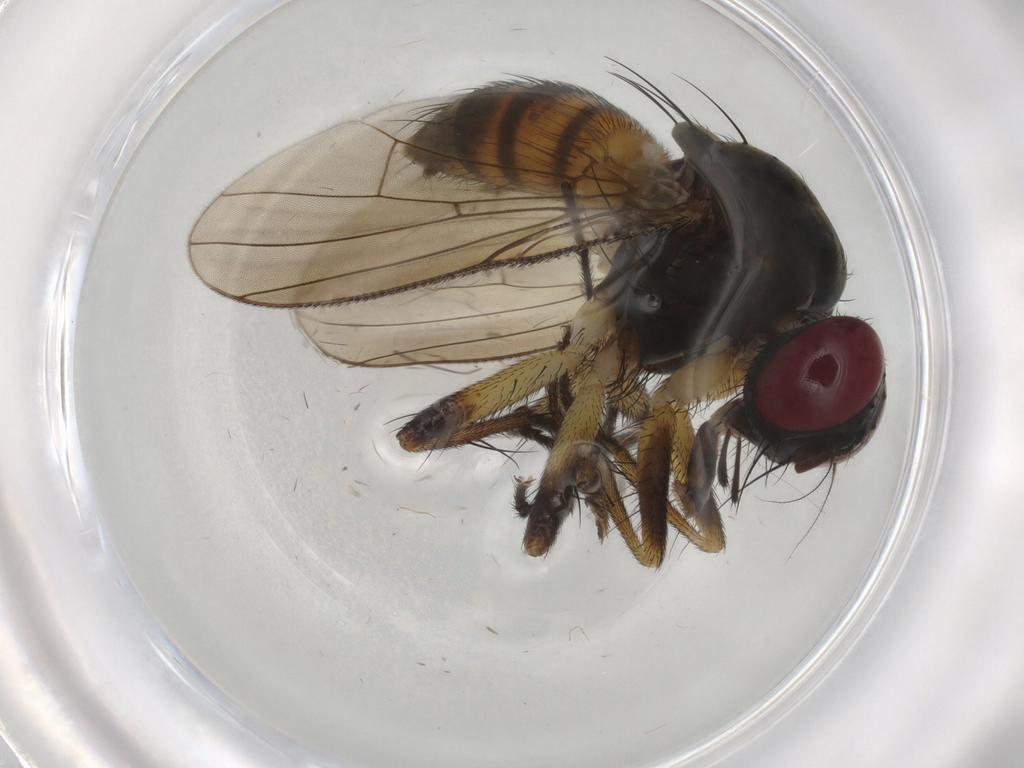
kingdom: Animalia
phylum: Arthropoda
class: Insecta
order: Diptera
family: Muscidae
